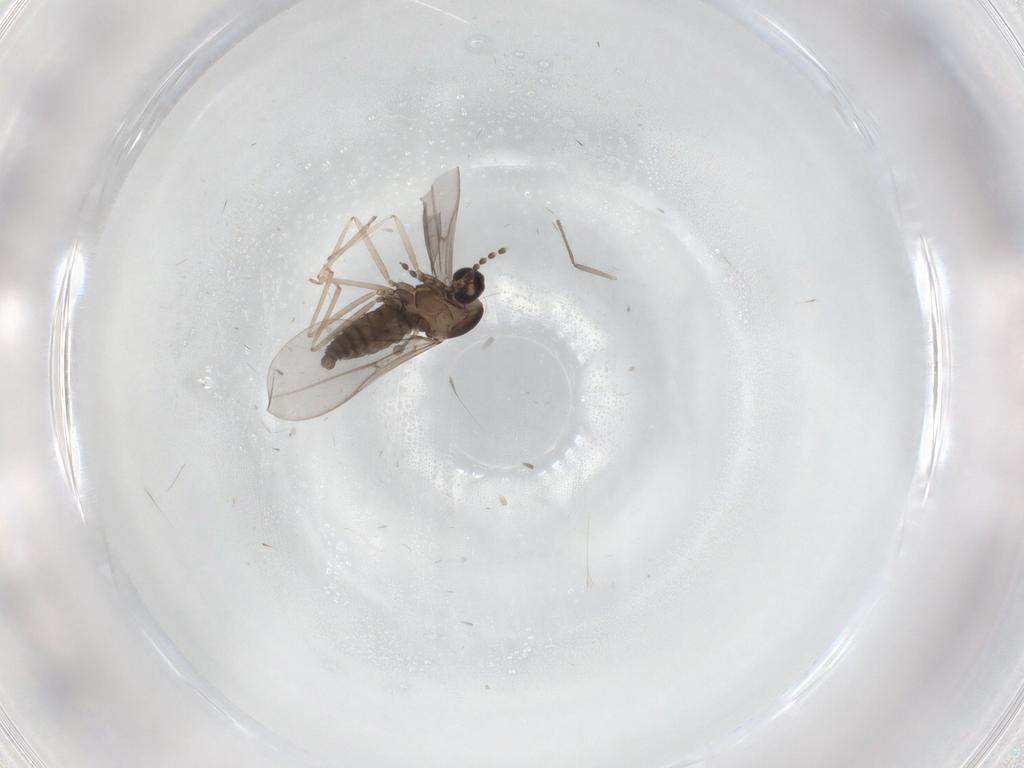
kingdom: Animalia
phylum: Arthropoda
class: Insecta
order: Diptera
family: Cecidomyiidae
